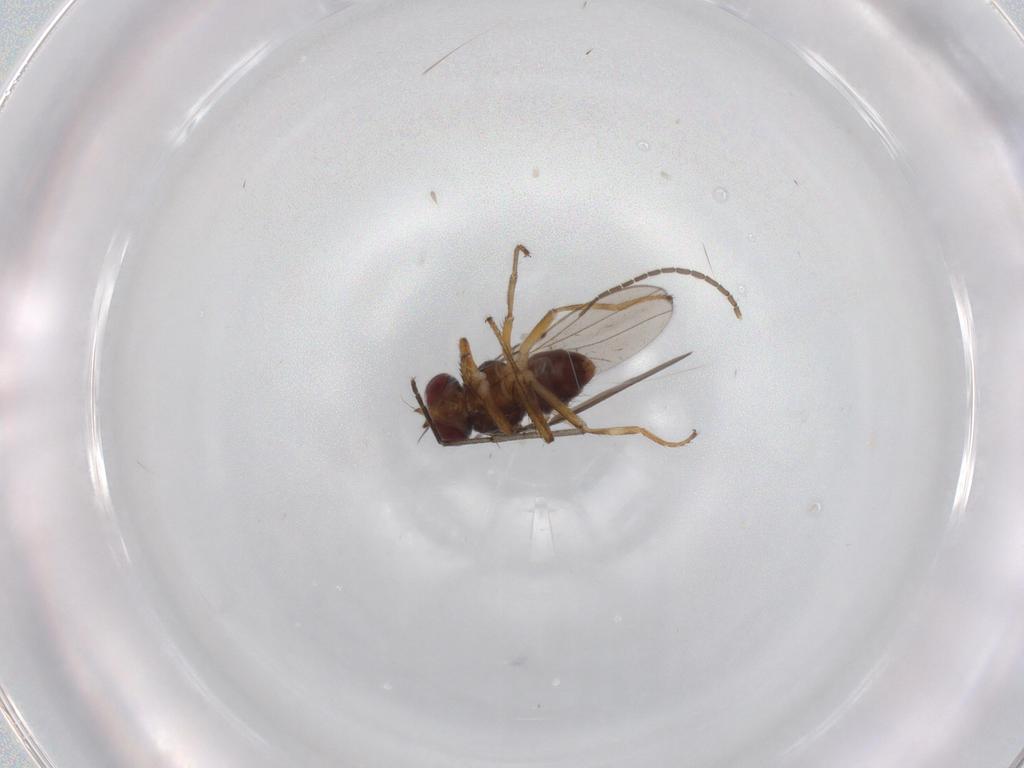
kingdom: Animalia
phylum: Arthropoda
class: Insecta
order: Diptera
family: Ephydridae
